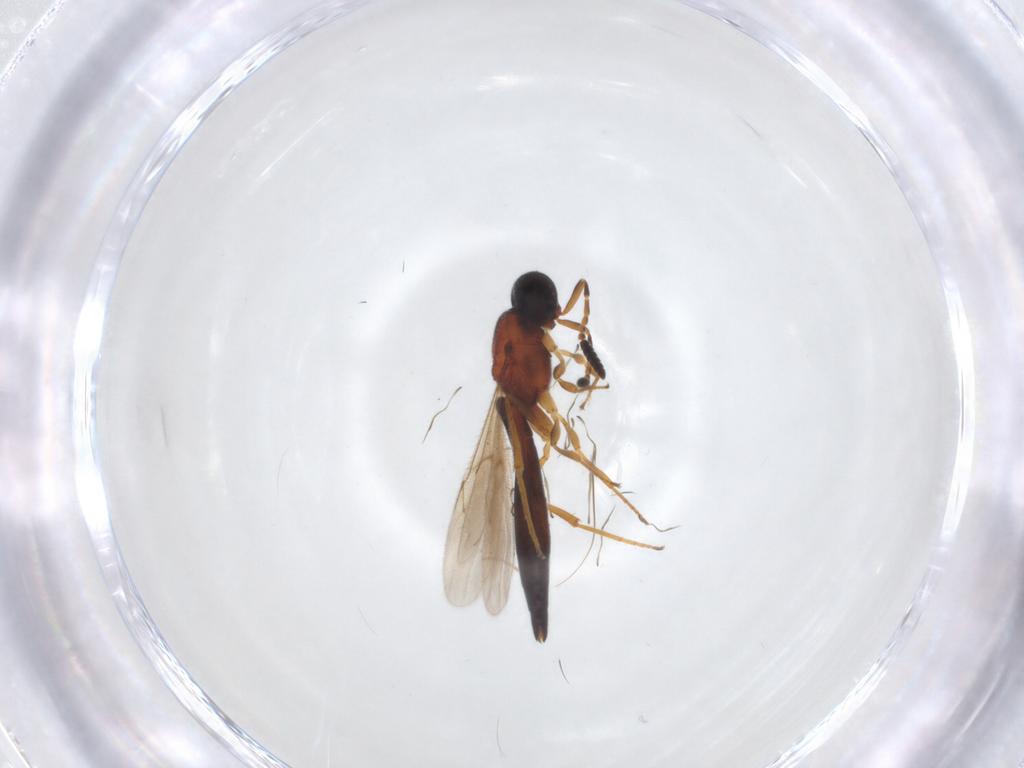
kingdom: Animalia
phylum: Arthropoda
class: Insecta
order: Hymenoptera
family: Scelionidae
